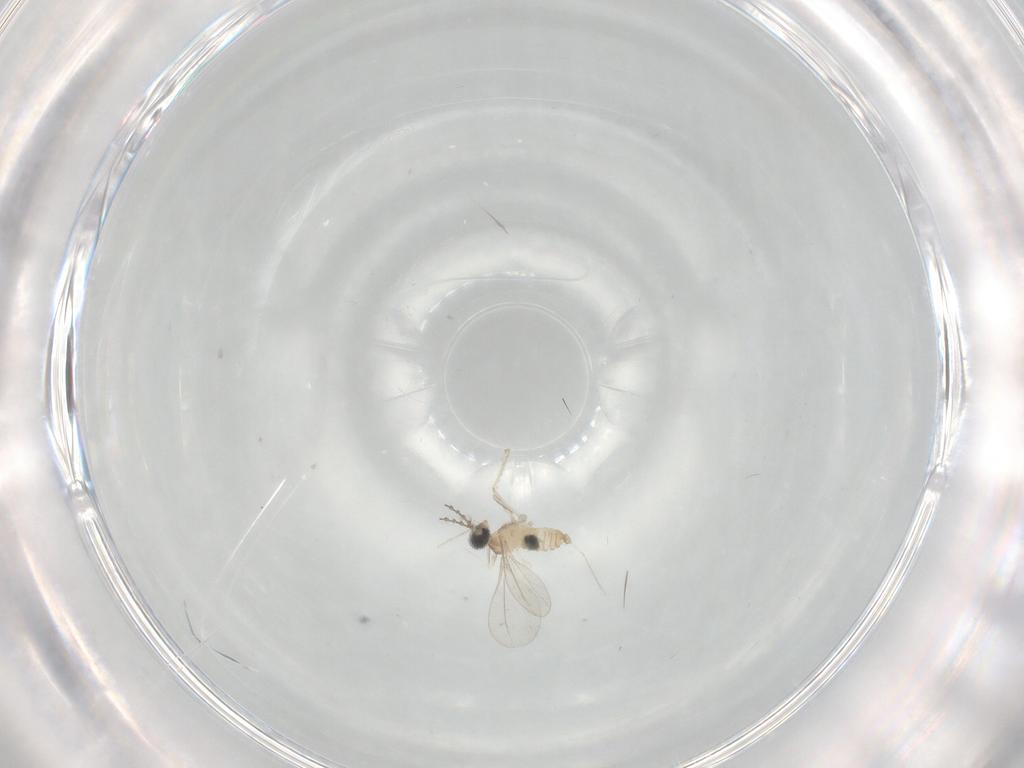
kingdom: Animalia
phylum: Arthropoda
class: Insecta
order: Diptera
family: Cecidomyiidae
